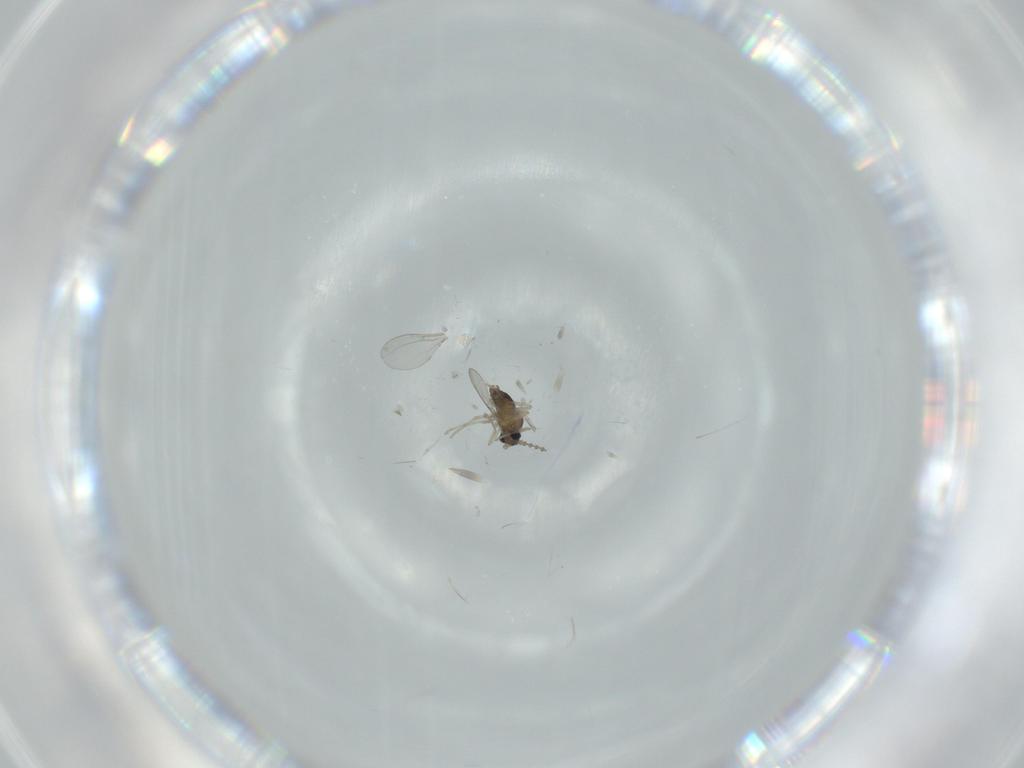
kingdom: Animalia
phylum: Arthropoda
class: Insecta
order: Diptera
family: Cecidomyiidae
